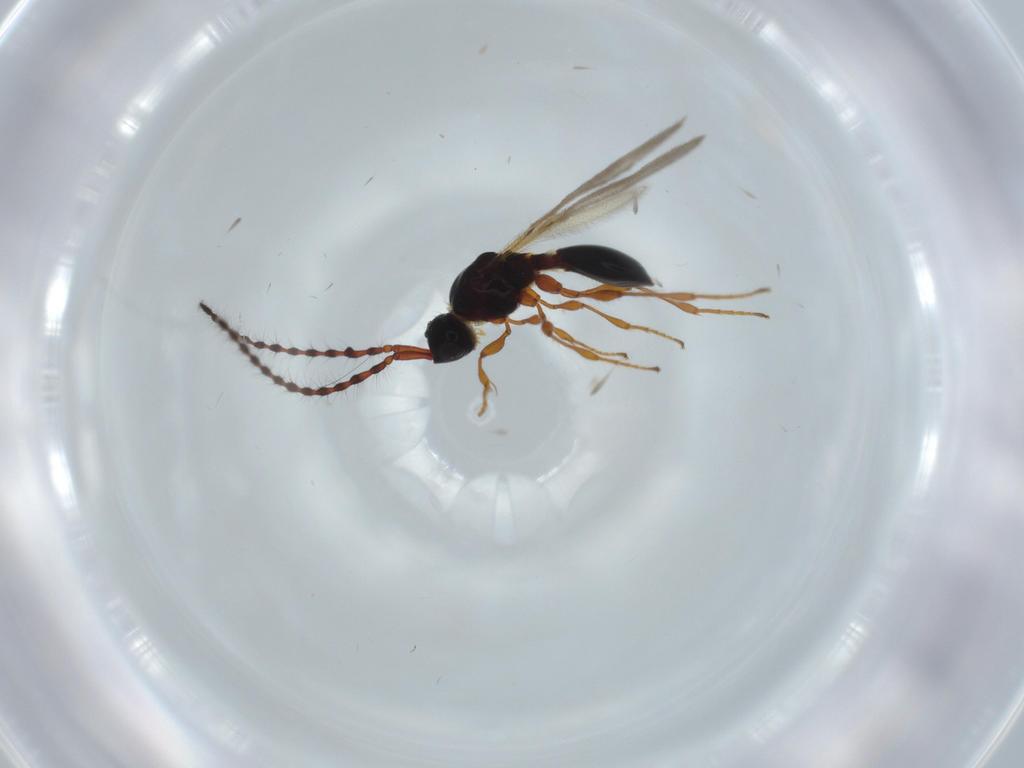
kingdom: Animalia
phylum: Arthropoda
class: Insecta
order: Hymenoptera
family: Diapriidae
